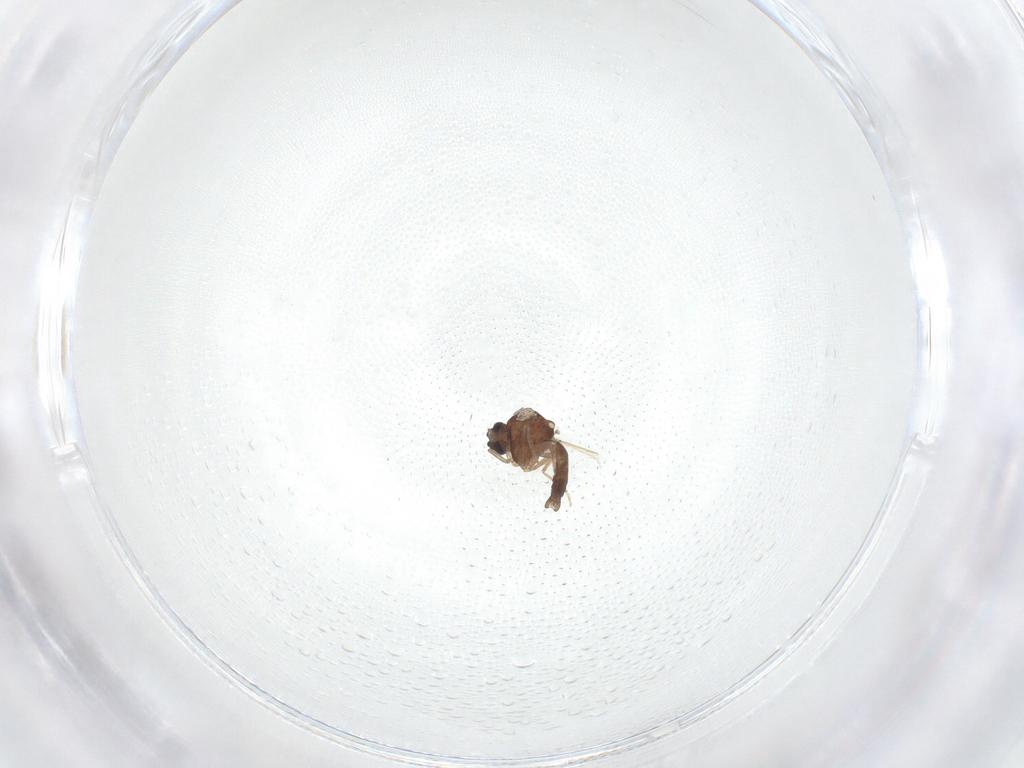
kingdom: Animalia
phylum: Arthropoda
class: Insecta
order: Diptera
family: Ceratopogonidae
